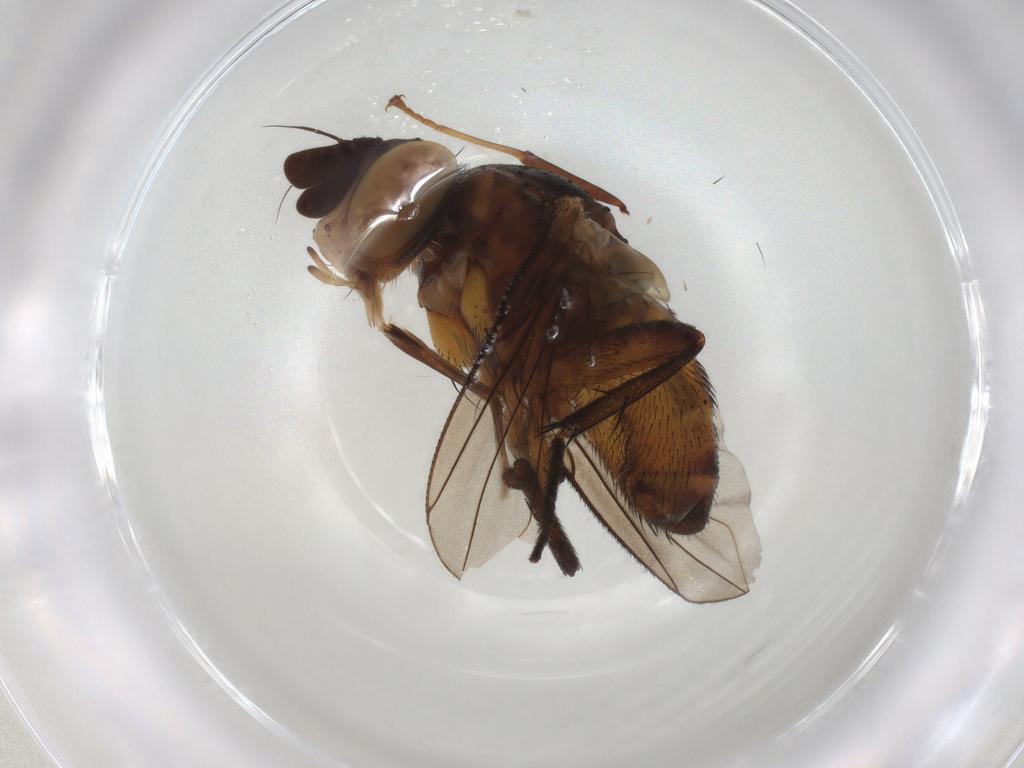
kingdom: Animalia
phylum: Arthropoda
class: Insecta
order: Diptera
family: Tachinidae
